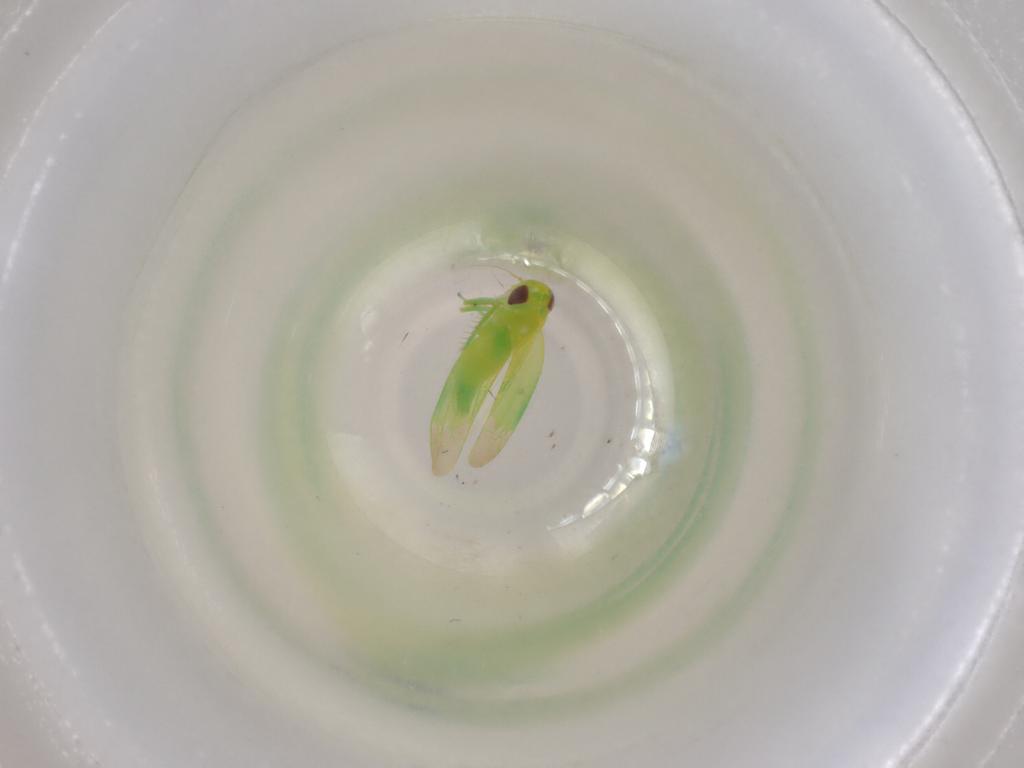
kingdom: Animalia
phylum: Arthropoda
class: Insecta
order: Hemiptera
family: Cicadellidae
